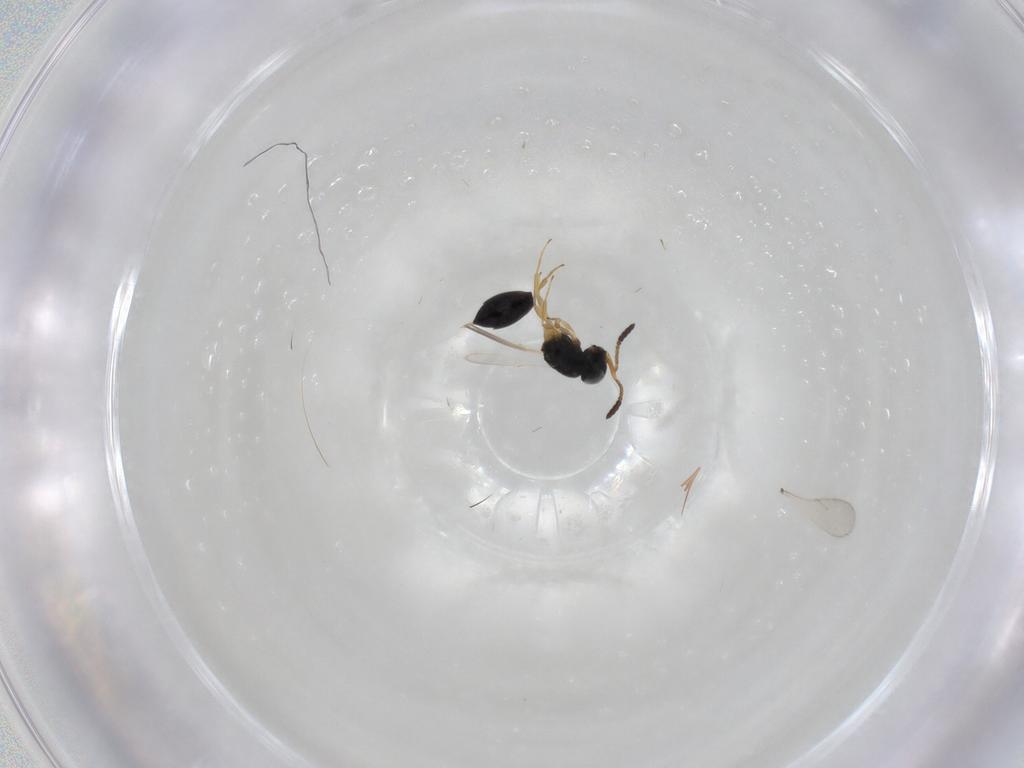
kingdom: Animalia
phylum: Arthropoda
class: Insecta
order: Hymenoptera
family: Scelionidae
